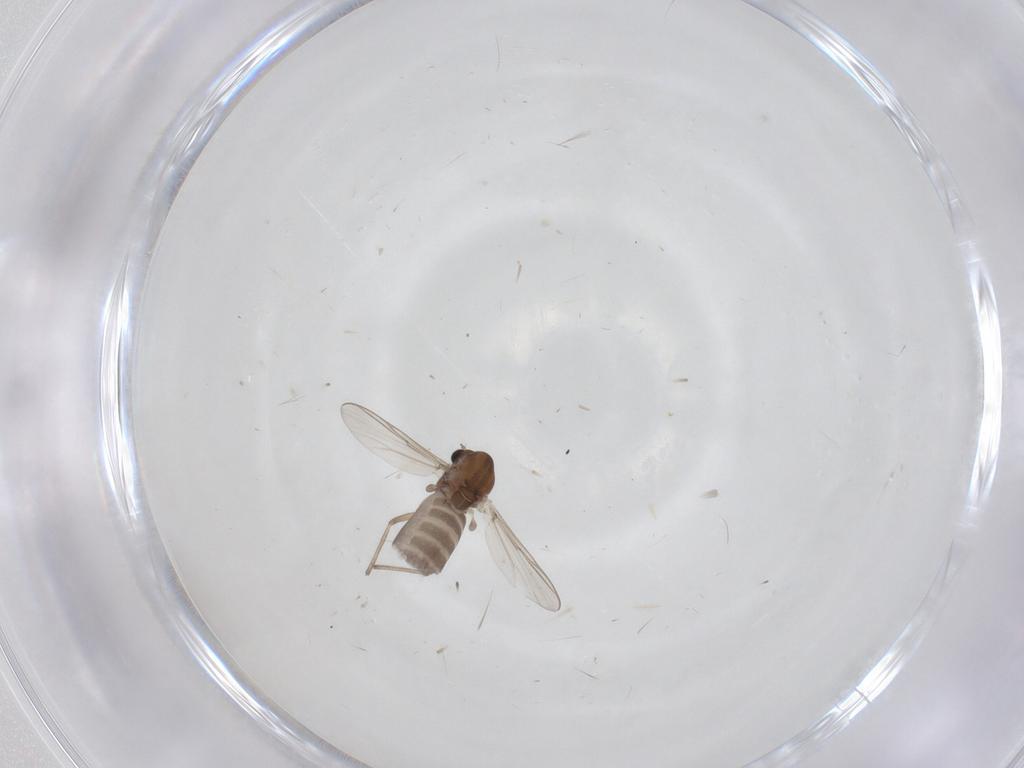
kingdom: Animalia
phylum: Arthropoda
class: Insecta
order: Diptera
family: Chironomidae
